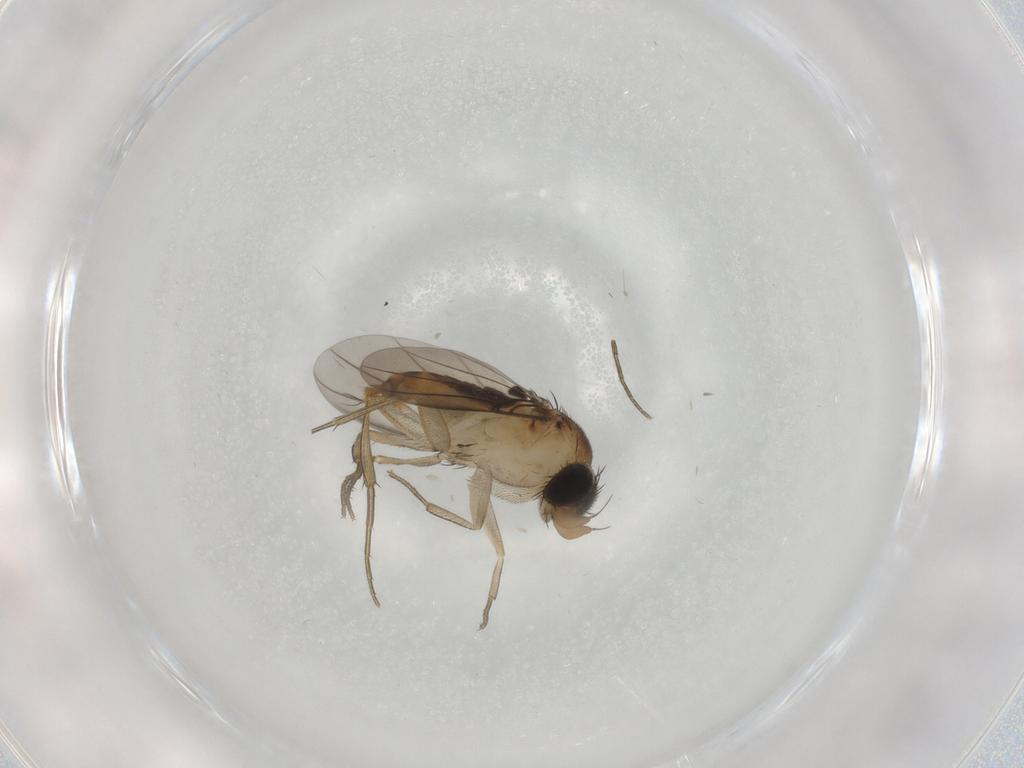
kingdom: Animalia
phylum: Arthropoda
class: Insecta
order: Diptera
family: Phoridae
